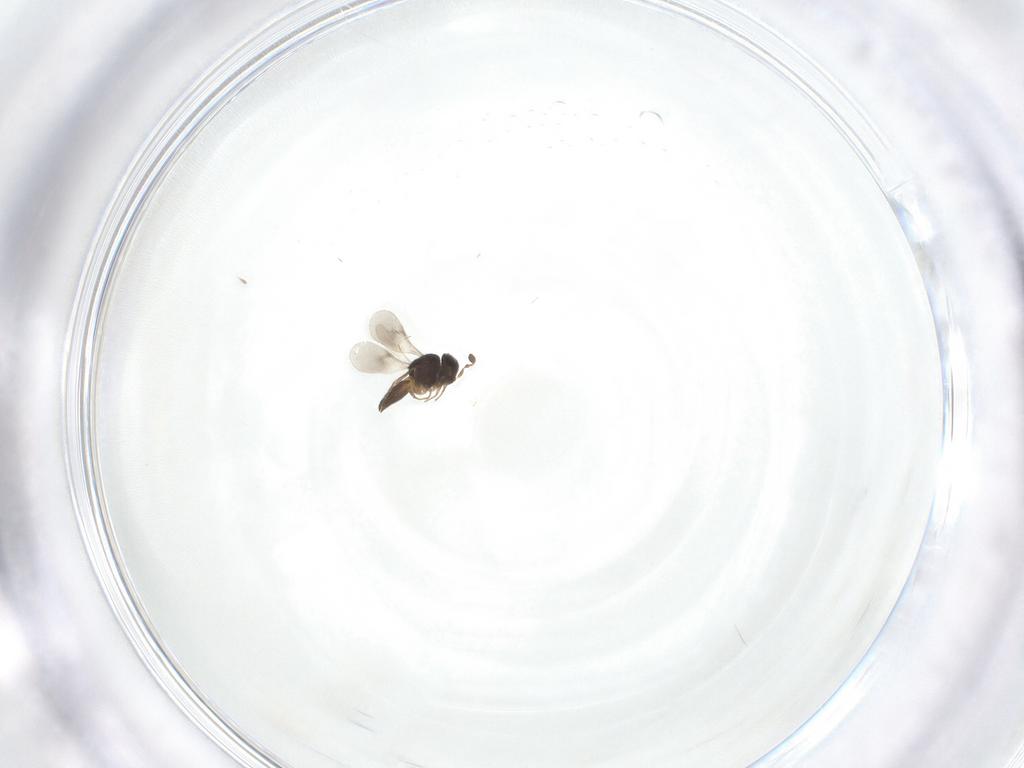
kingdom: Animalia
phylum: Arthropoda
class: Insecta
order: Hymenoptera
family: Scelionidae
